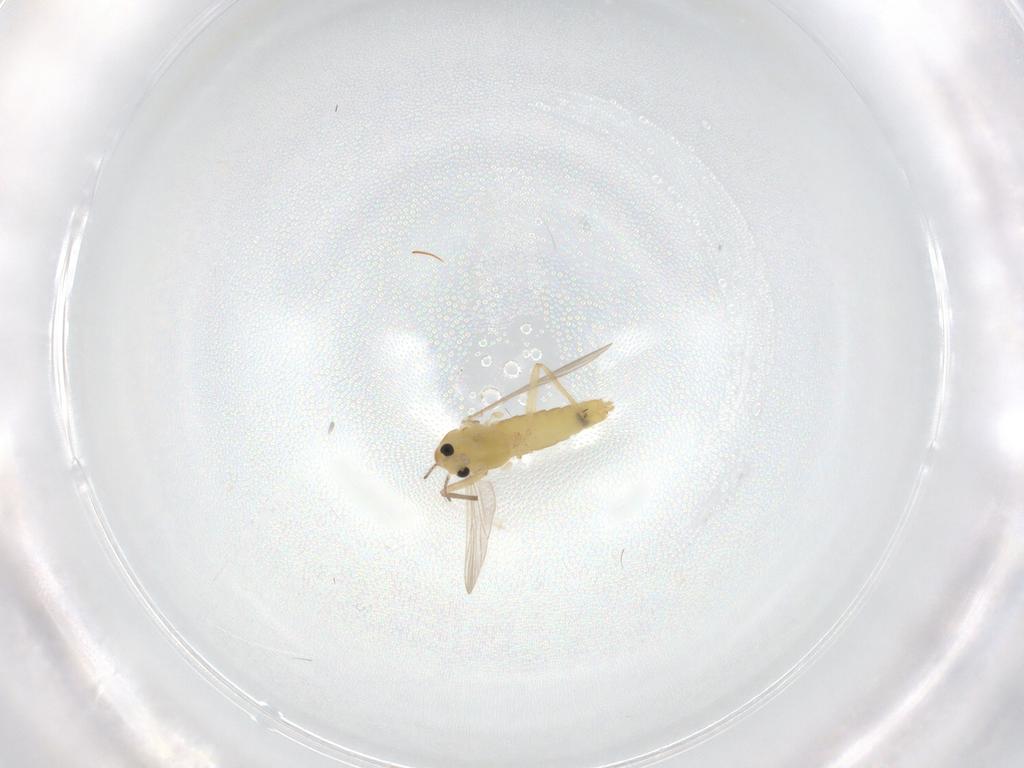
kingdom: Animalia
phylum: Arthropoda
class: Insecta
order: Diptera
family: Chironomidae
